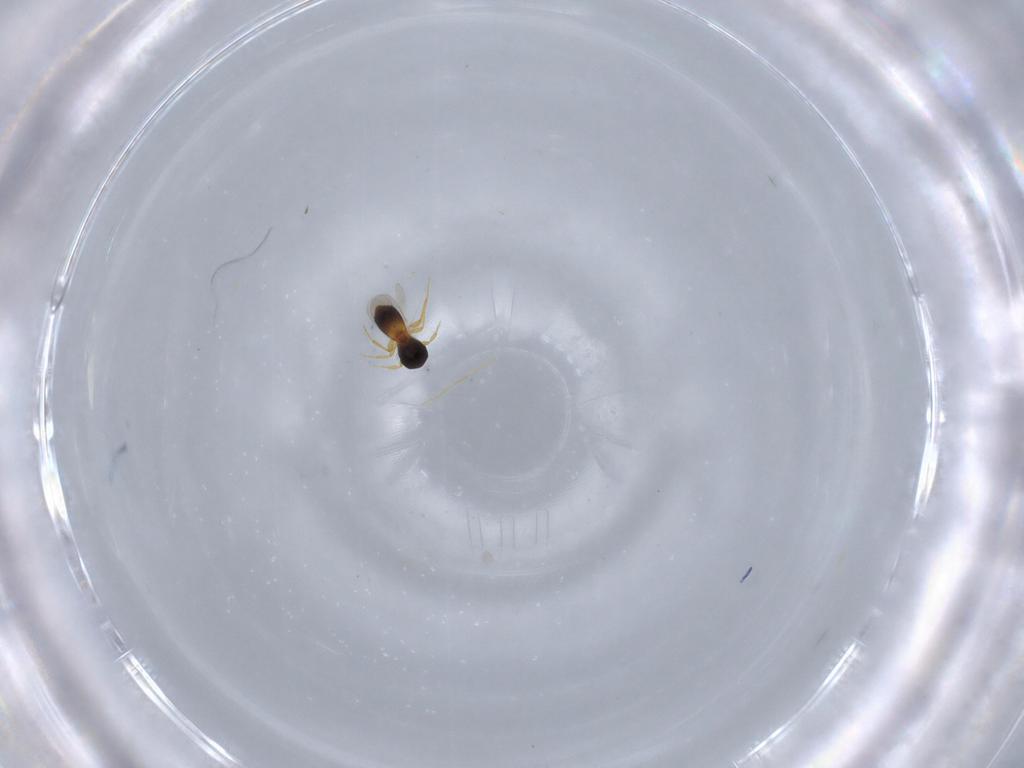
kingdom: Animalia
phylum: Arthropoda
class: Insecta
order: Hymenoptera
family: Platygastridae
